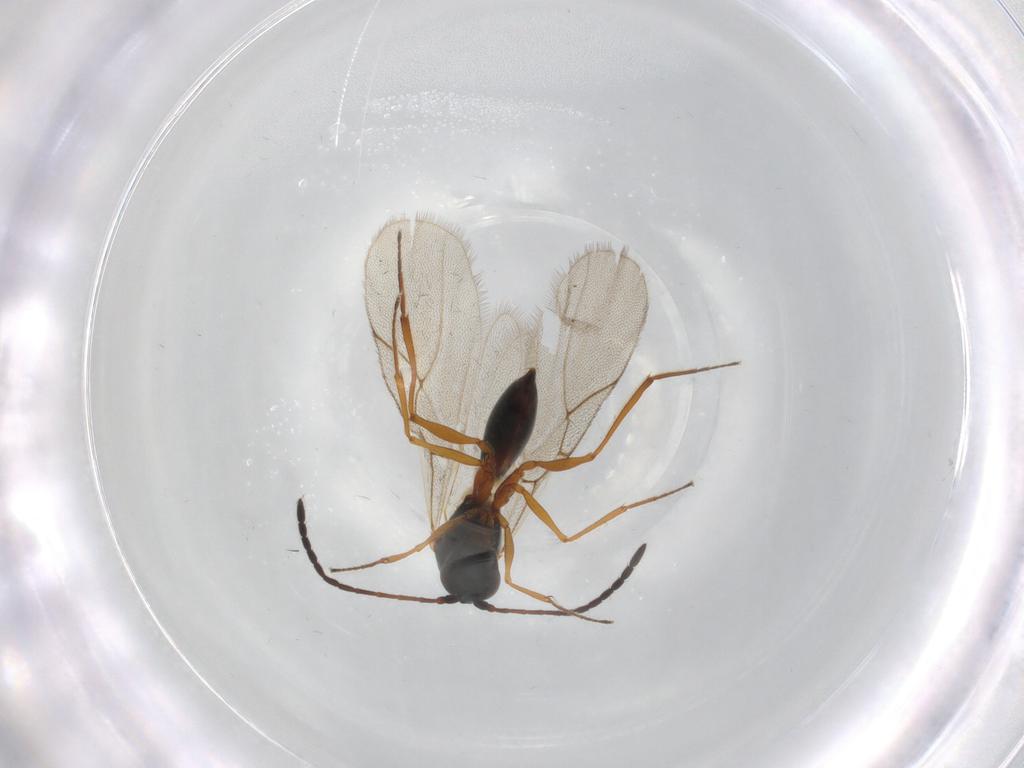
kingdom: Animalia
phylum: Arthropoda
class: Insecta
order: Hymenoptera
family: Figitidae
